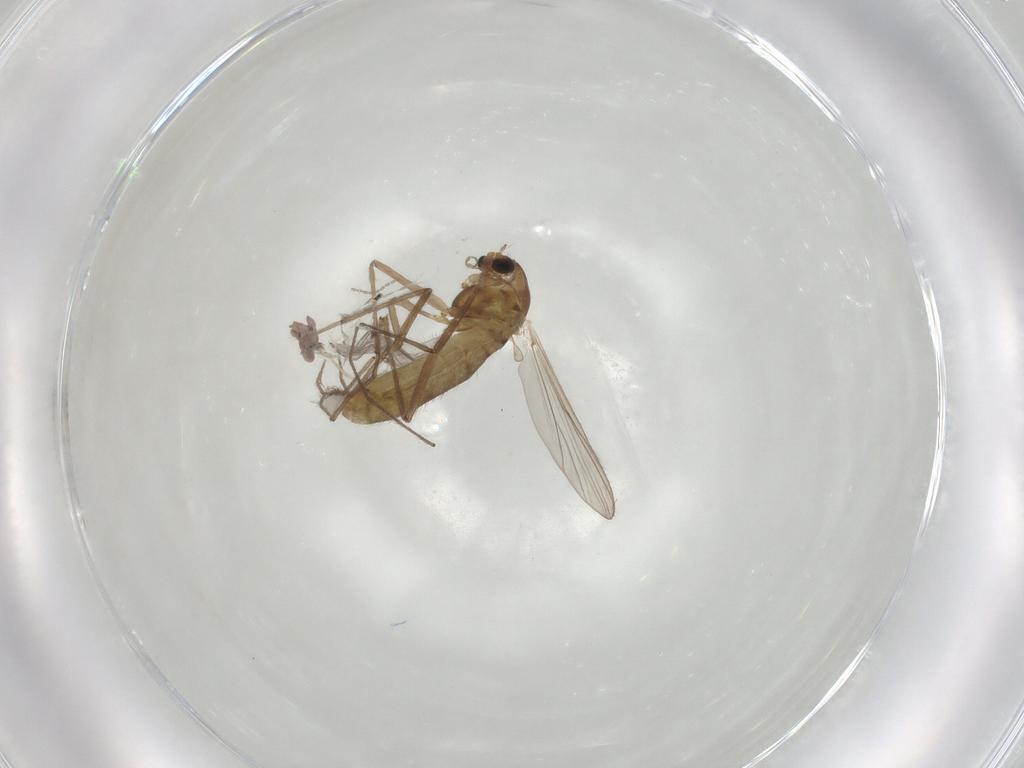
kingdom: Animalia
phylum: Arthropoda
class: Insecta
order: Diptera
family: Chironomidae
